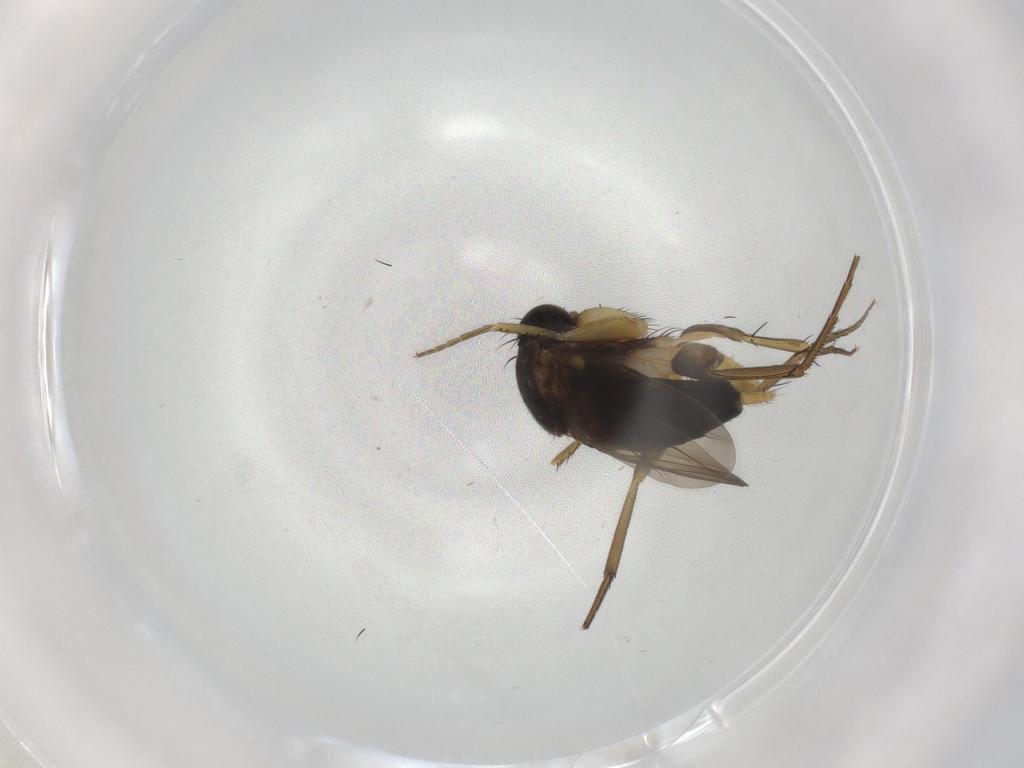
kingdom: Animalia
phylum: Arthropoda
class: Insecta
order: Diptera
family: Phoridae
